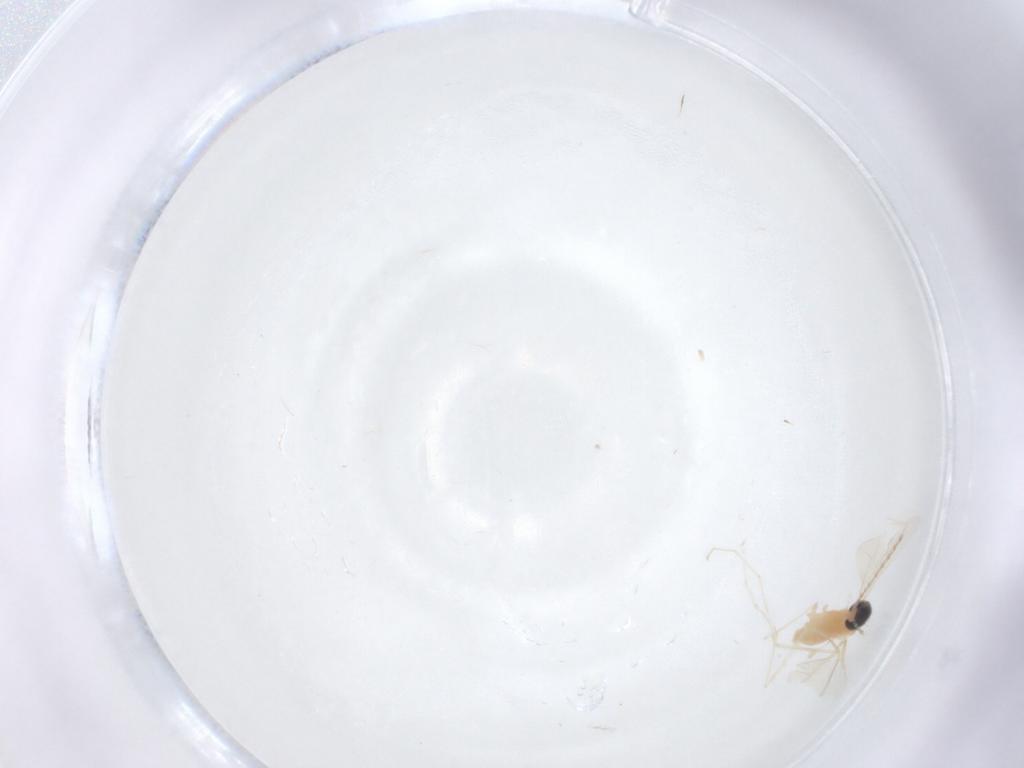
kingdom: Animalia
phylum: Arthropoda
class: Insecta
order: Diptera
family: Cecidomyiidae
